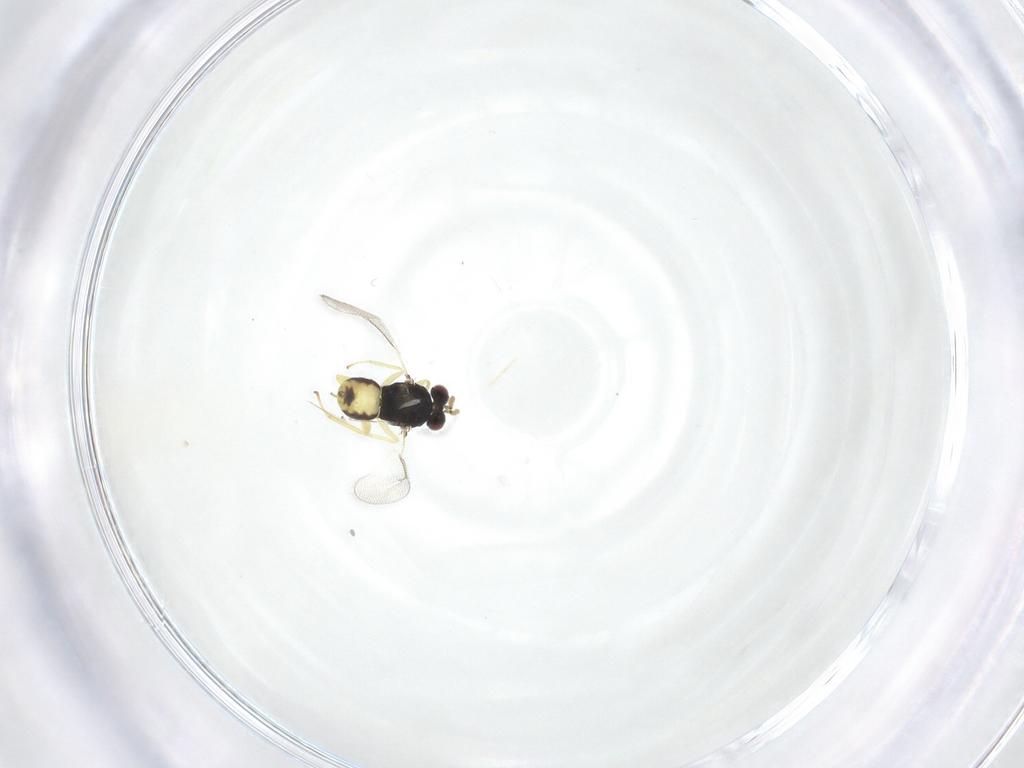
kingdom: Animalia
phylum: Arthropoda
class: Insecta
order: Hymenoptera
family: Eulophidae
